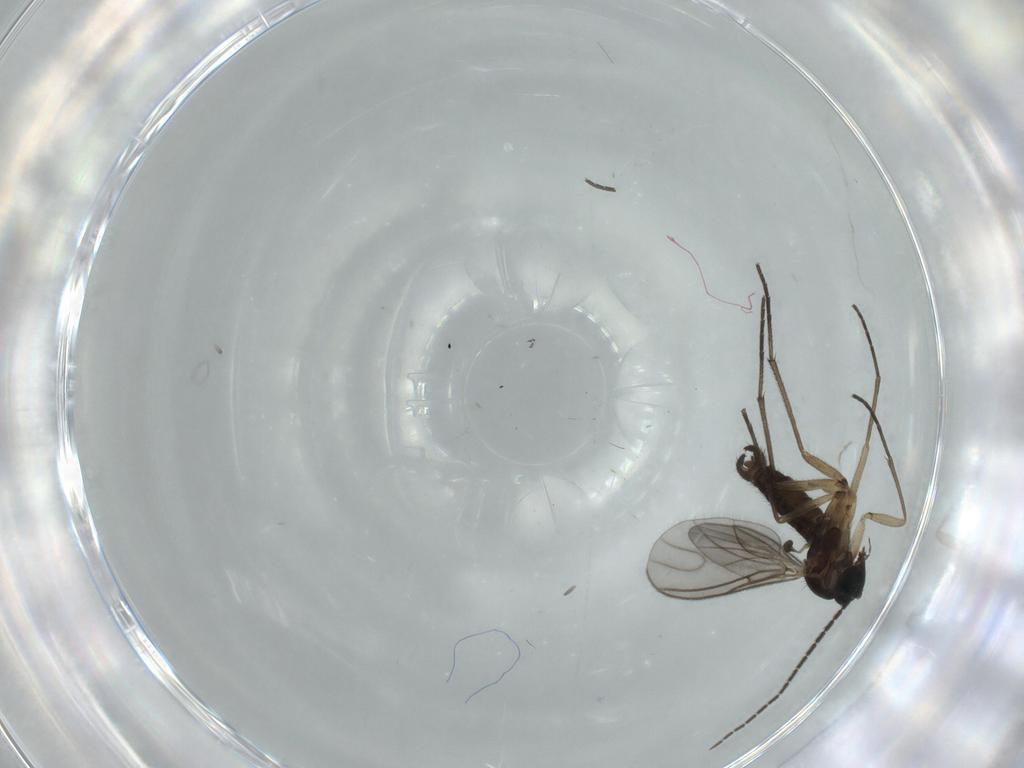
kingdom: Animalia
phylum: Arthropoda
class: Insecta
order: Diptera
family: Sciaridae
